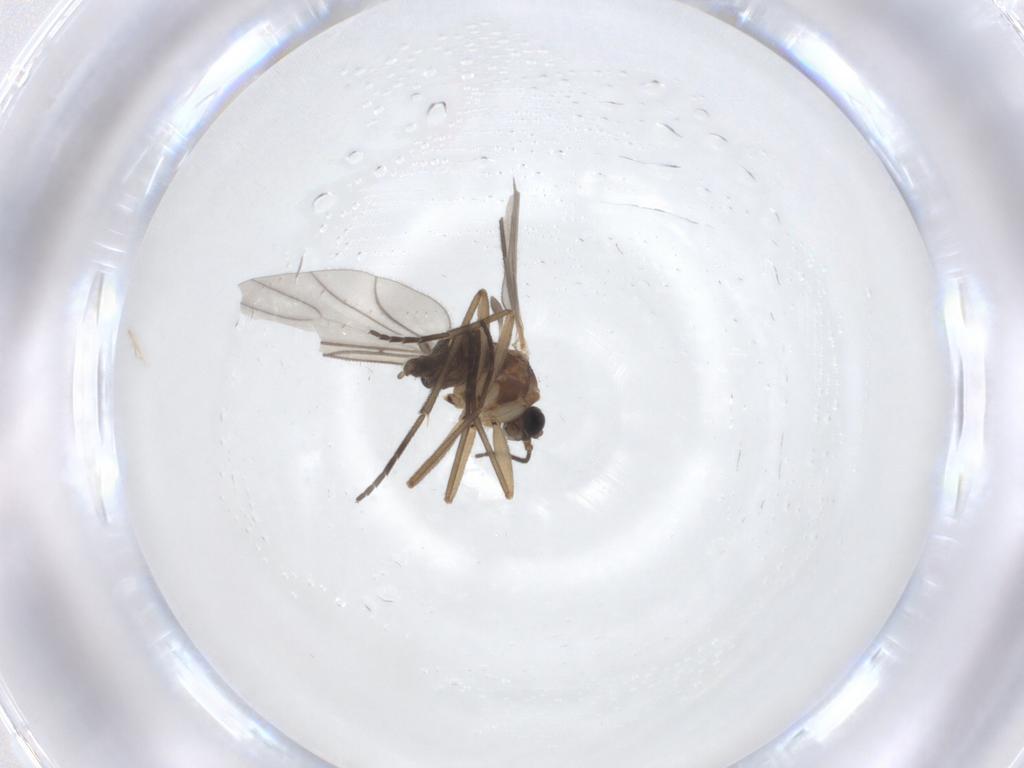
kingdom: Animalia
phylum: Arthropoda
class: Insecta
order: Diptera
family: Sciaridae
